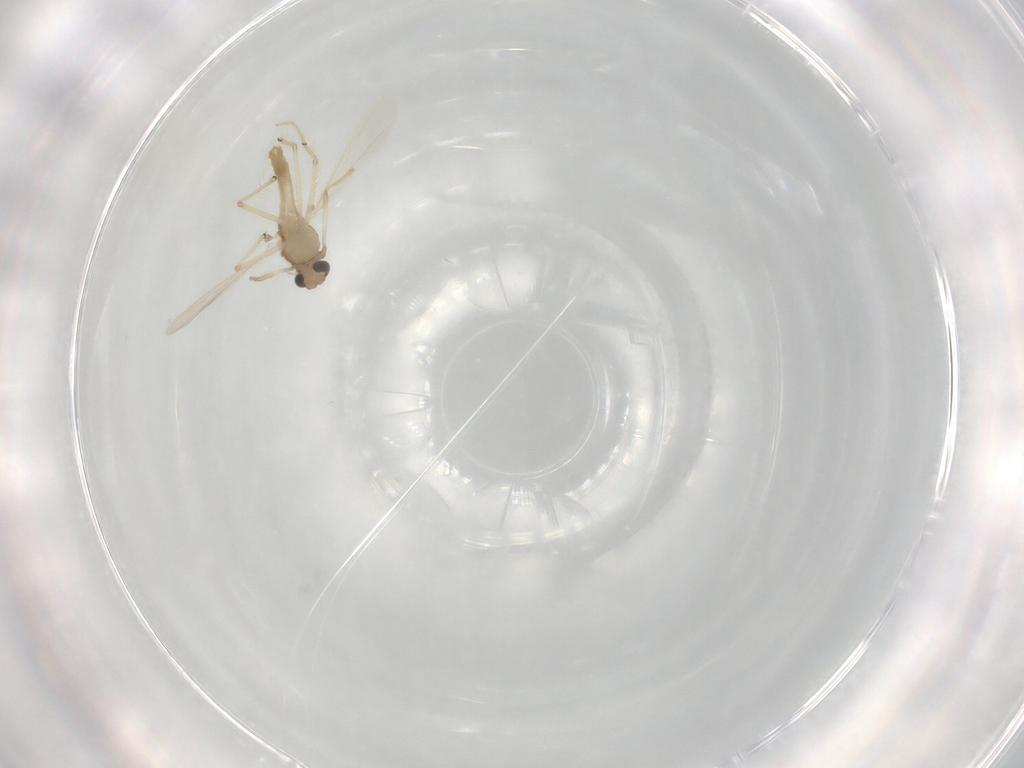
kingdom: Animalia
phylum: Arthropoda
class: Insecta
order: Diptera
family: Chironomidae
